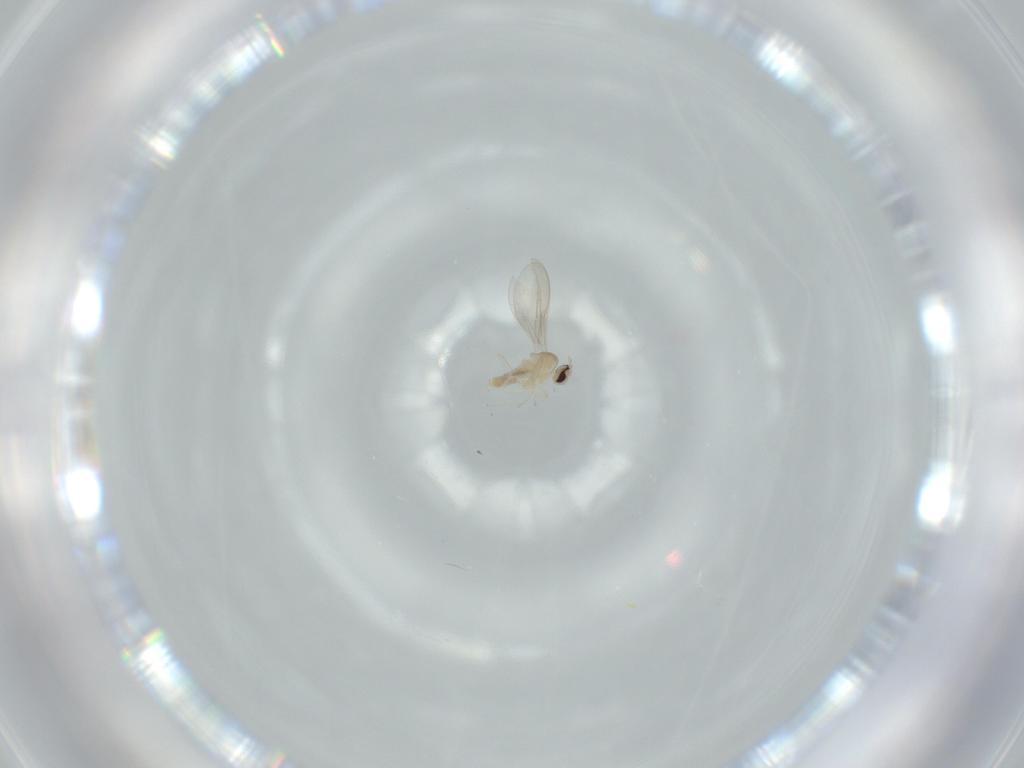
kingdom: Animalia
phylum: Arthropoda
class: Insecta
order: Diptera
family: Cecidomyiidae
